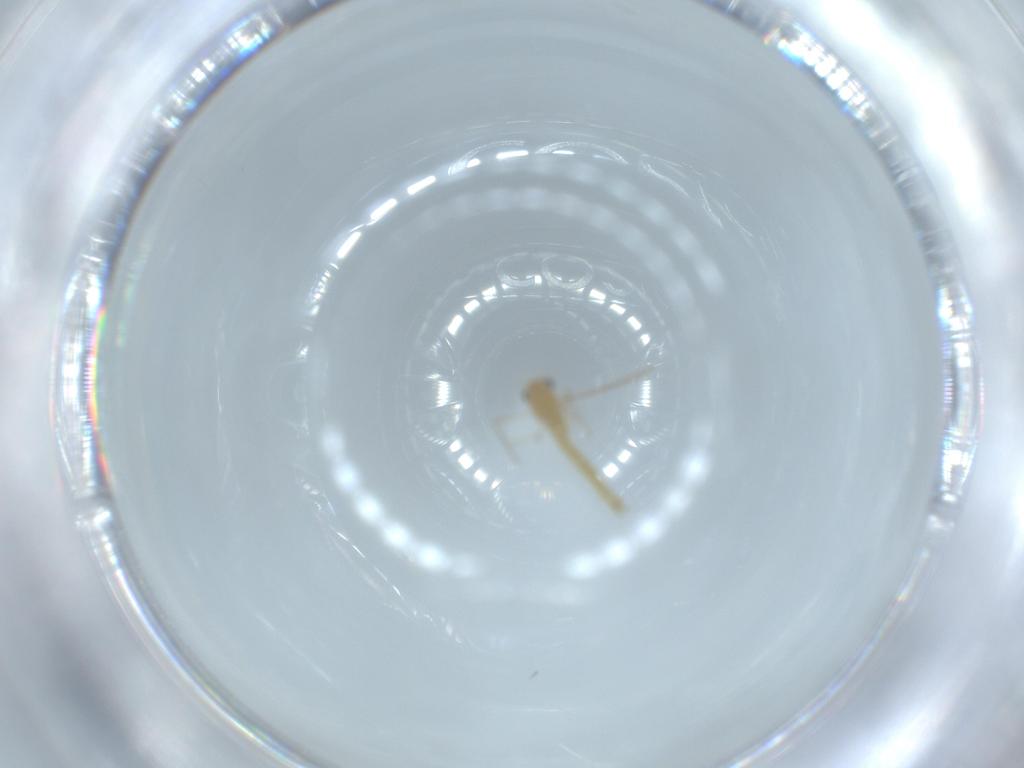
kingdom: Animalia
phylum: Arthropoda
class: Insecta
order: Diptera
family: Chironomidae
